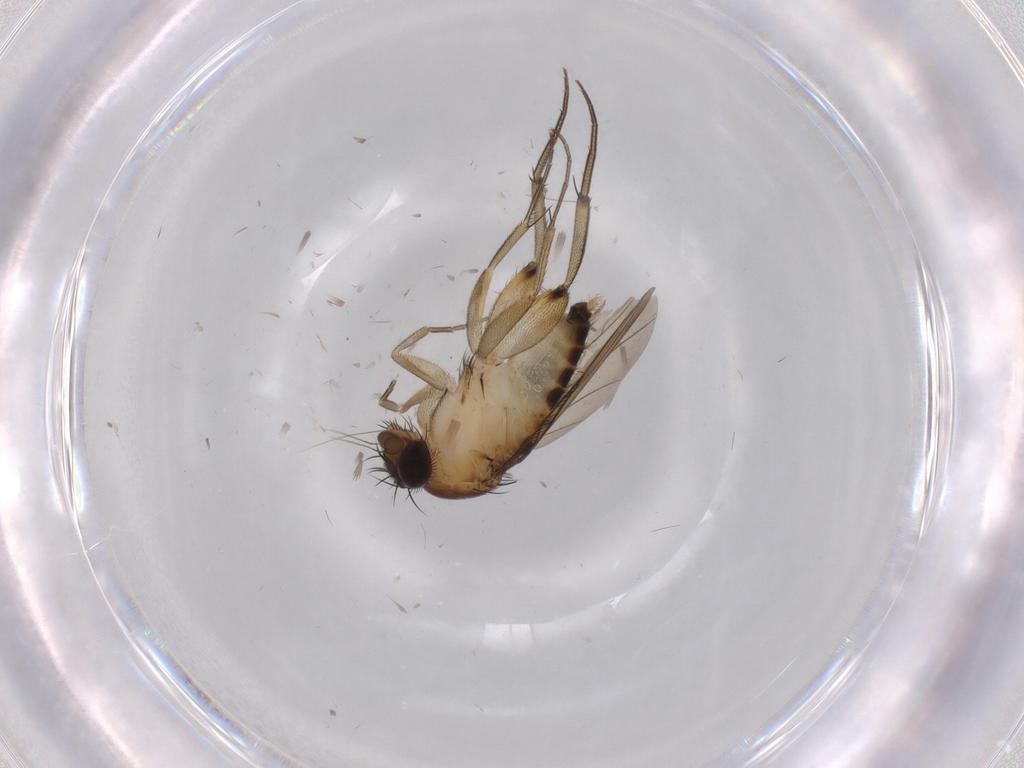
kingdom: Animalia
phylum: Arthropoda
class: Insecta
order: Diptera
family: Phoridae
